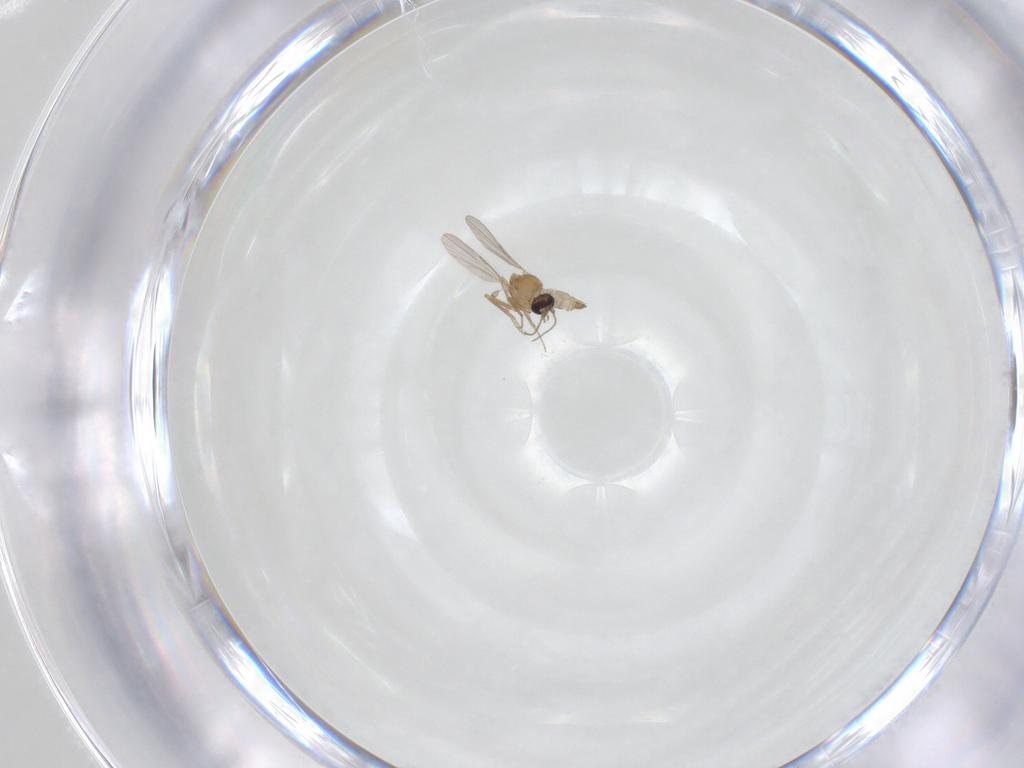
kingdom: Animalia
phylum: Arthropoda
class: Insecta
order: Diptera
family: Ceratopogonidae
